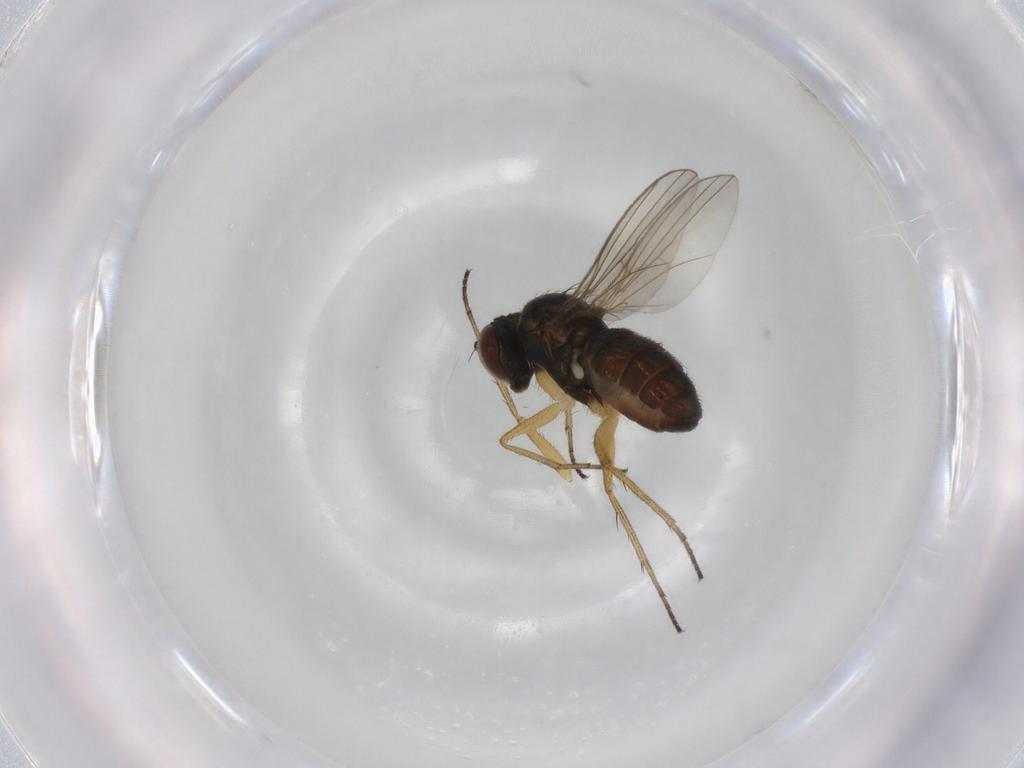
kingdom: Animalia
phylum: Arthropoda
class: Insecta
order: Diptera
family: Ceratopogonidae
